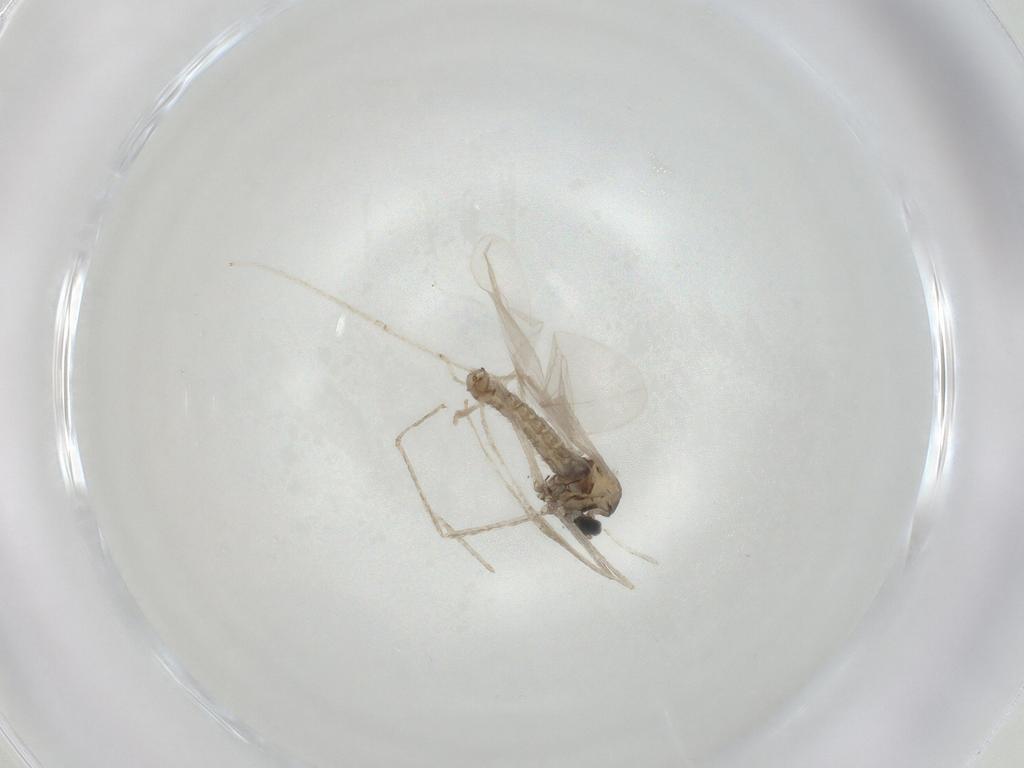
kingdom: Animalia
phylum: Arthropoda
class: Insecta
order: Diptera
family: Cecidomyiidae
